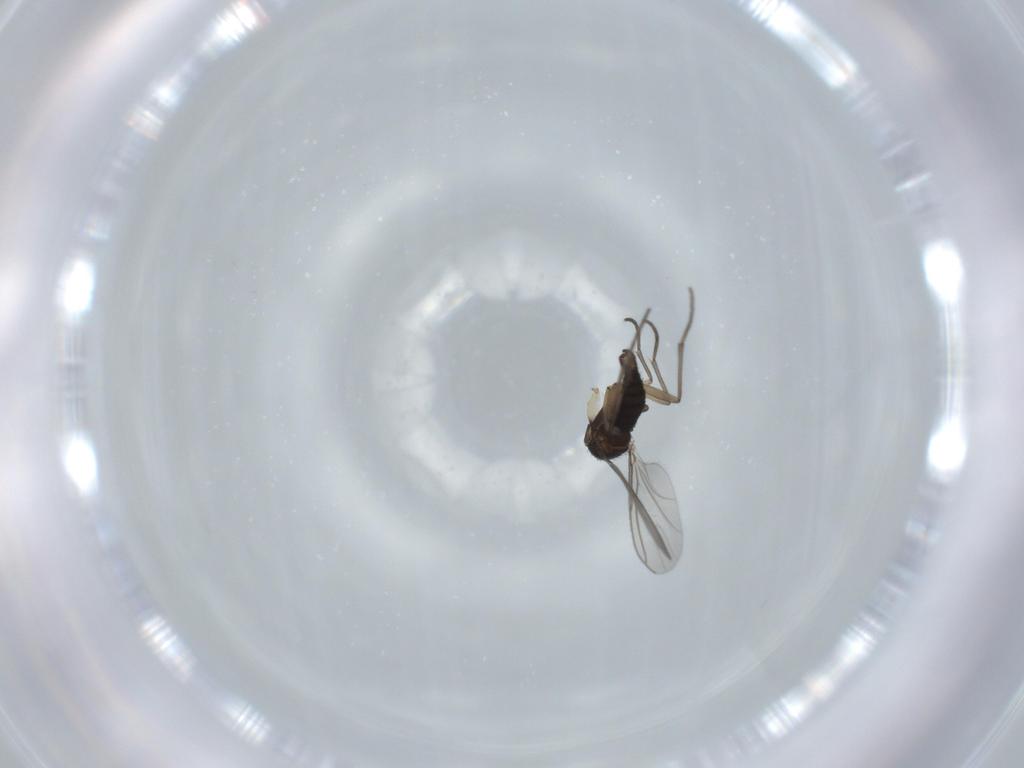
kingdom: Animalia
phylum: Arthropoda
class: Insecta
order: Diptera
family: Sciaridae
